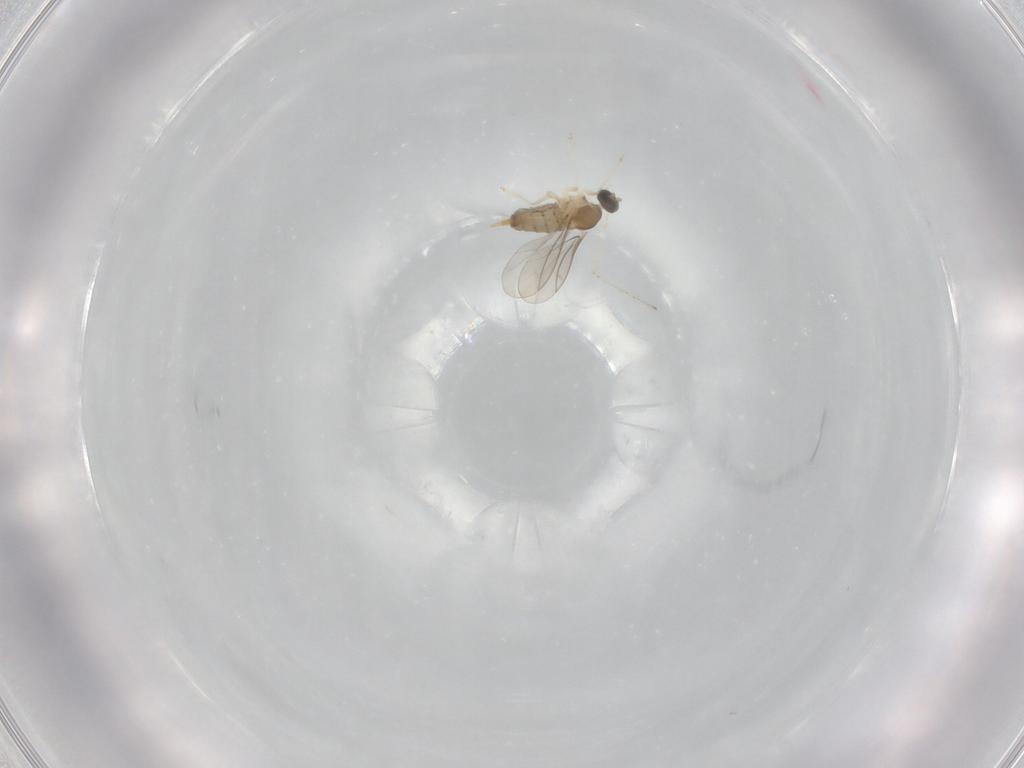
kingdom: Animalia
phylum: Arthropoda
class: Insecta
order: Diptera
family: Cecidomyiidae
